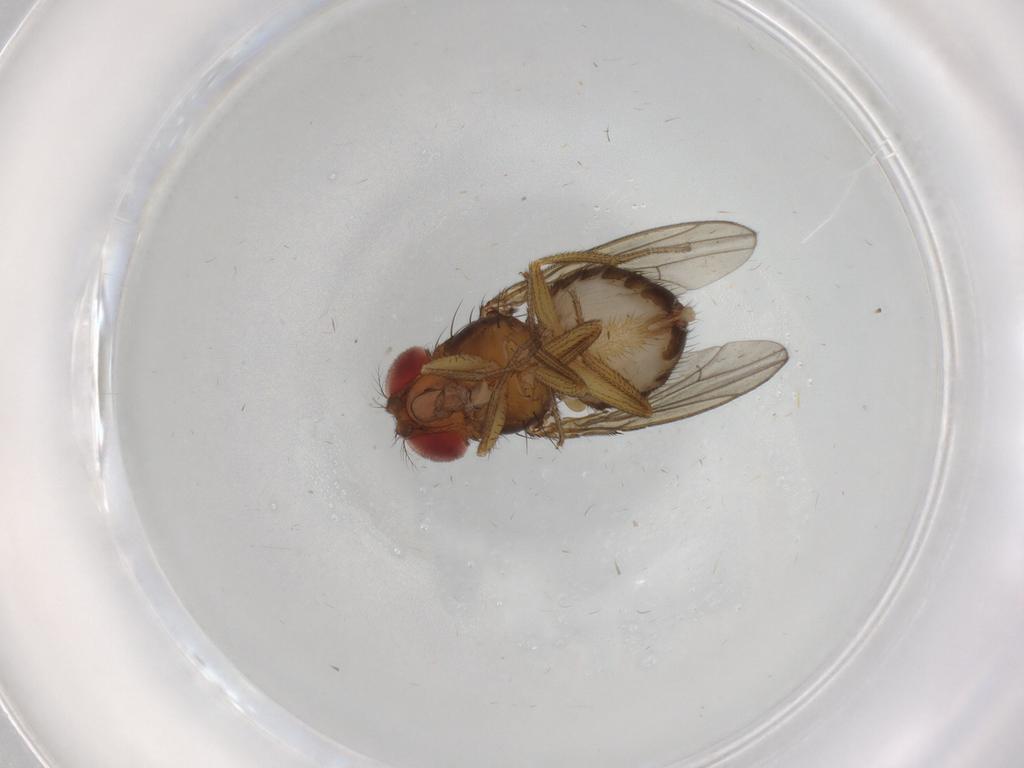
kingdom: Animalia
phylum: Arthropoda
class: Insecta
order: Diptera
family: Drosophilidae
